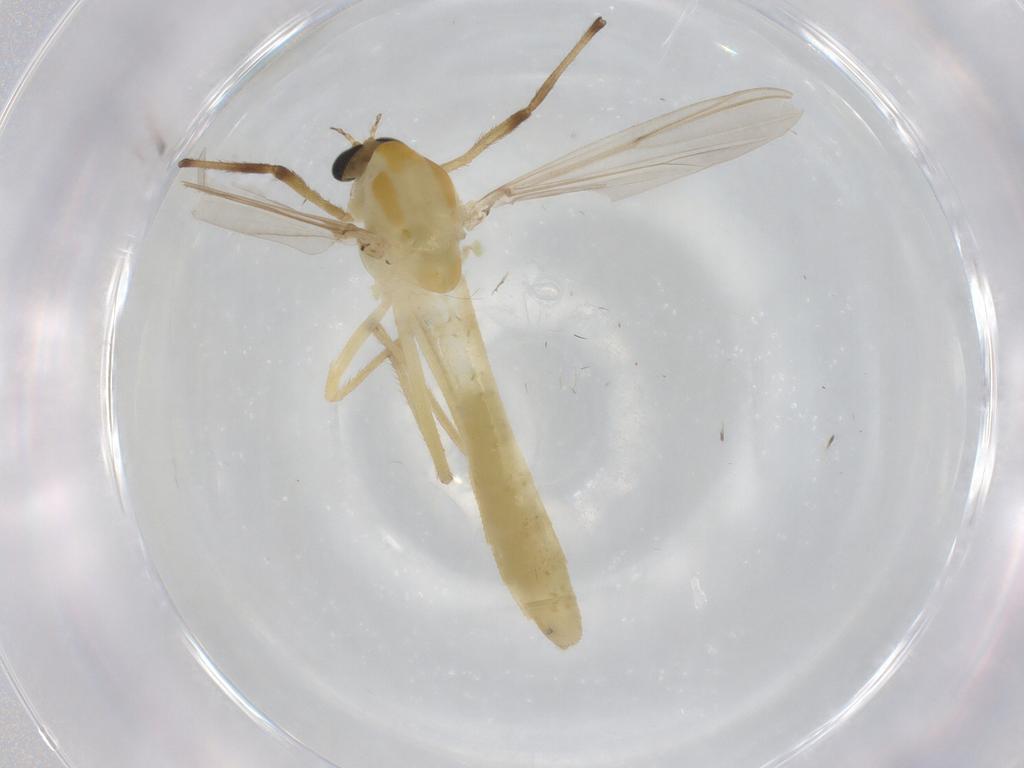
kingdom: Animalia
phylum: Arthropoda
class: Insecta
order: Diptera
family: Chironomidae
